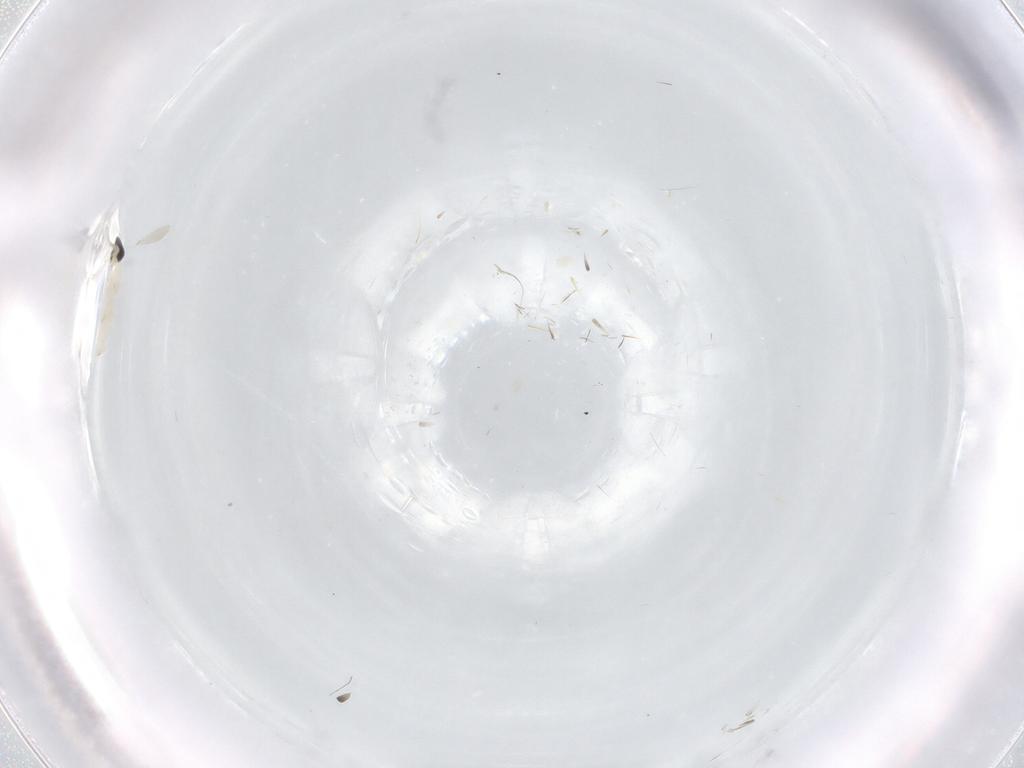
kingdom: Animalia
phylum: Arthropoda
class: Insecta
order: Diptera
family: Cecidomyiidae
